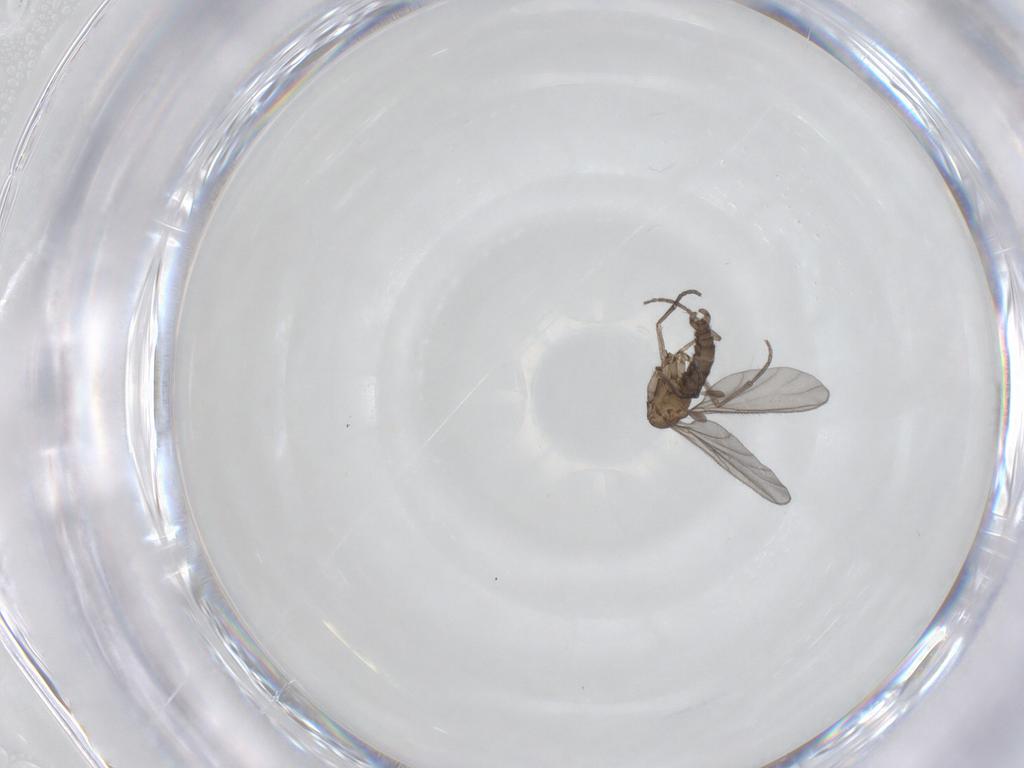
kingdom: Animalia
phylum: Arthropoda
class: Insecta
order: Diptera
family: Sciaridae
